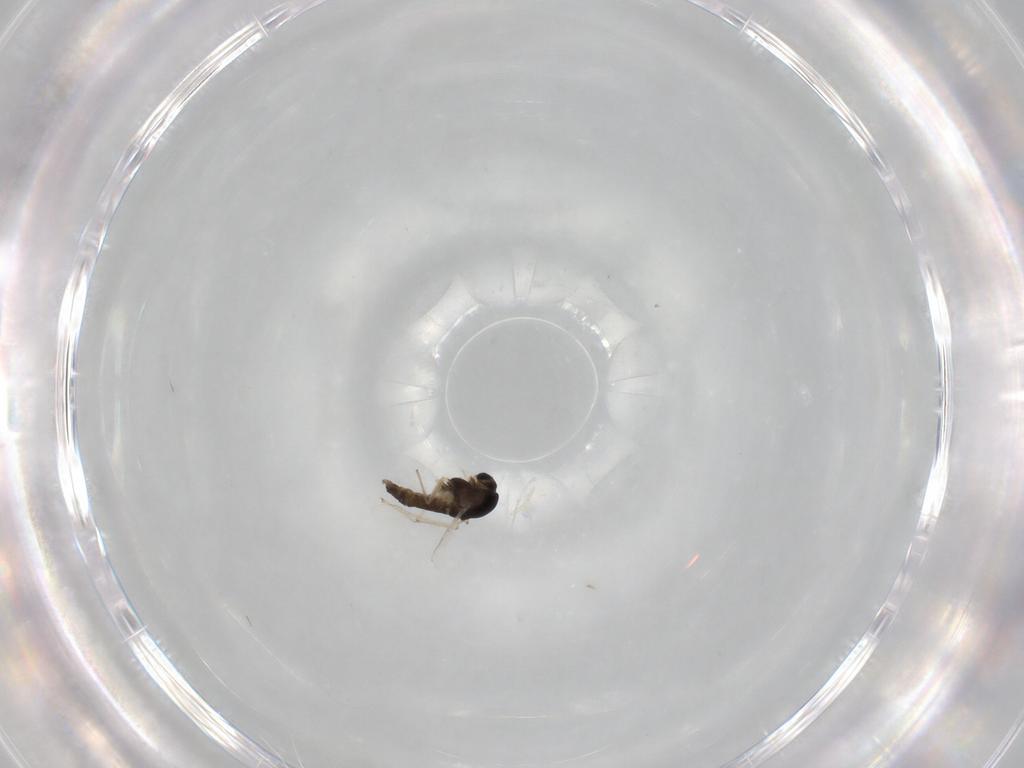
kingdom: Animalia
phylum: Arthropoda
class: Insecta
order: Diptera
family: Chironomidae
